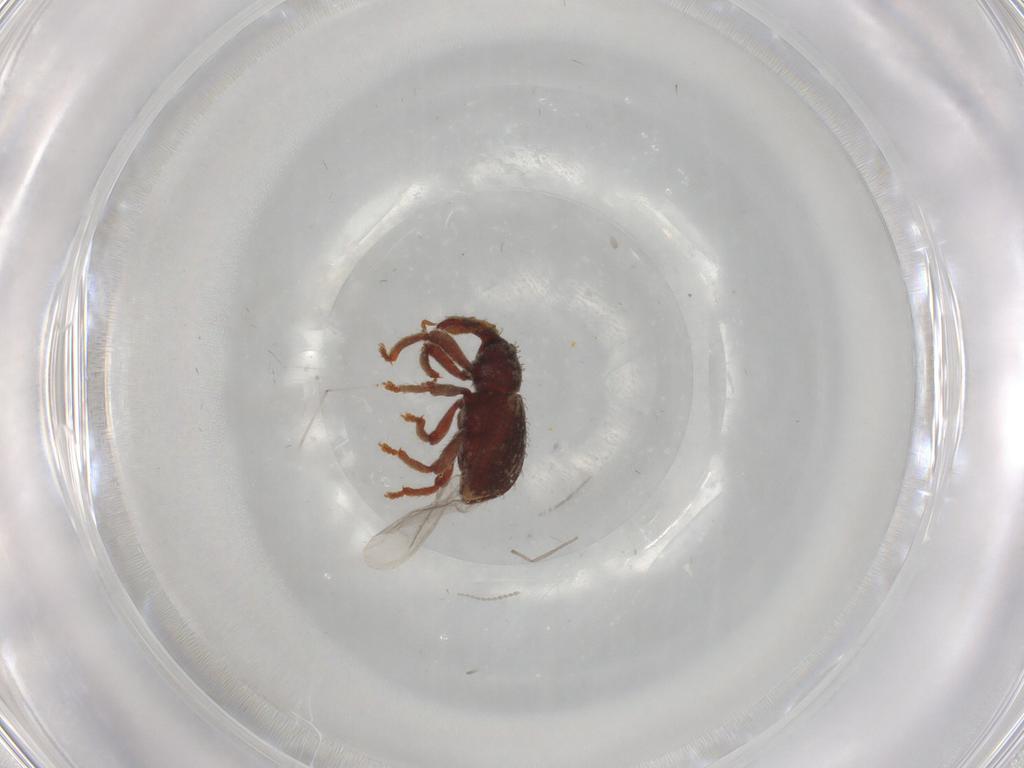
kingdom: Animalia
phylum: Arthropoda
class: Insecta
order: Coleoptera
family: Curculionidae
